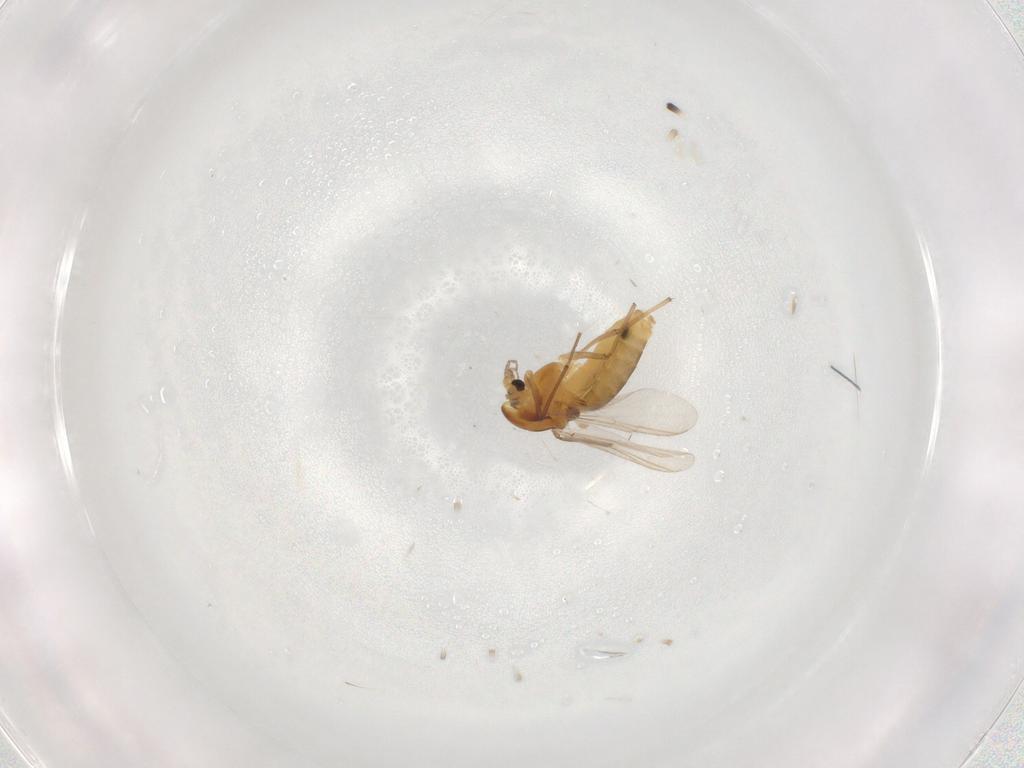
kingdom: Animalia
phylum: Arthropoda
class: Insecta
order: Diptera
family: Chironomidae
